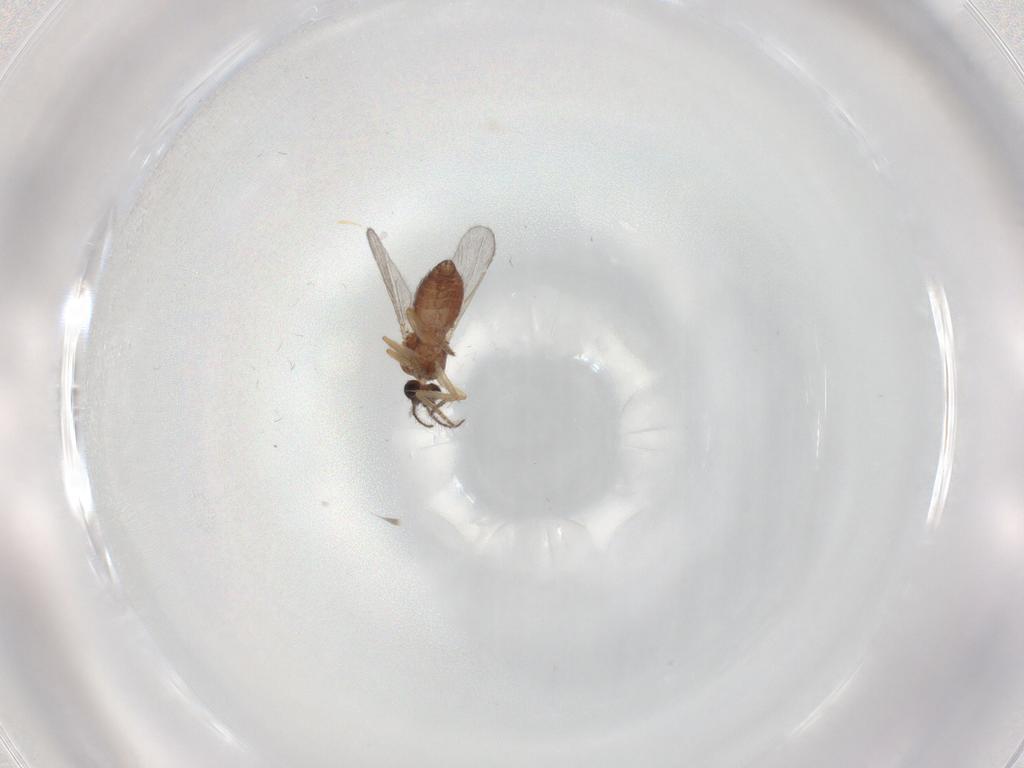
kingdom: Animalia
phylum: Arthropoda
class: Insecta
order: Diptera
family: Ceratopogonidae
